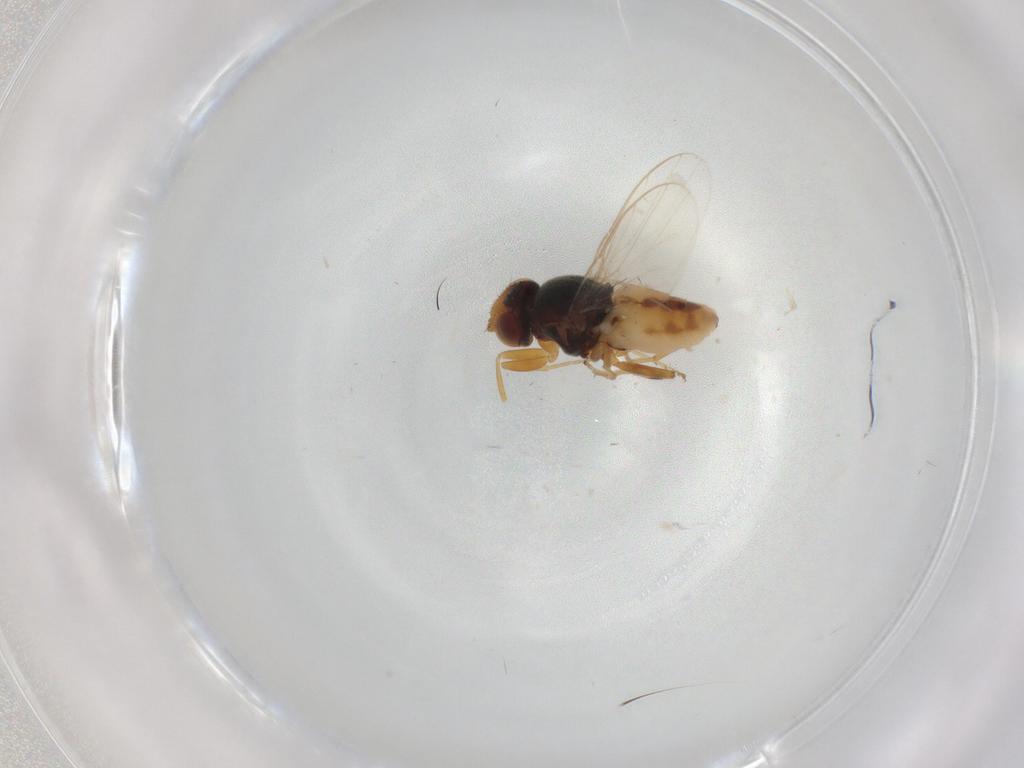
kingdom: Animalia
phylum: Arthropoda
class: Insecta
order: Diptera
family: Chloropidae
